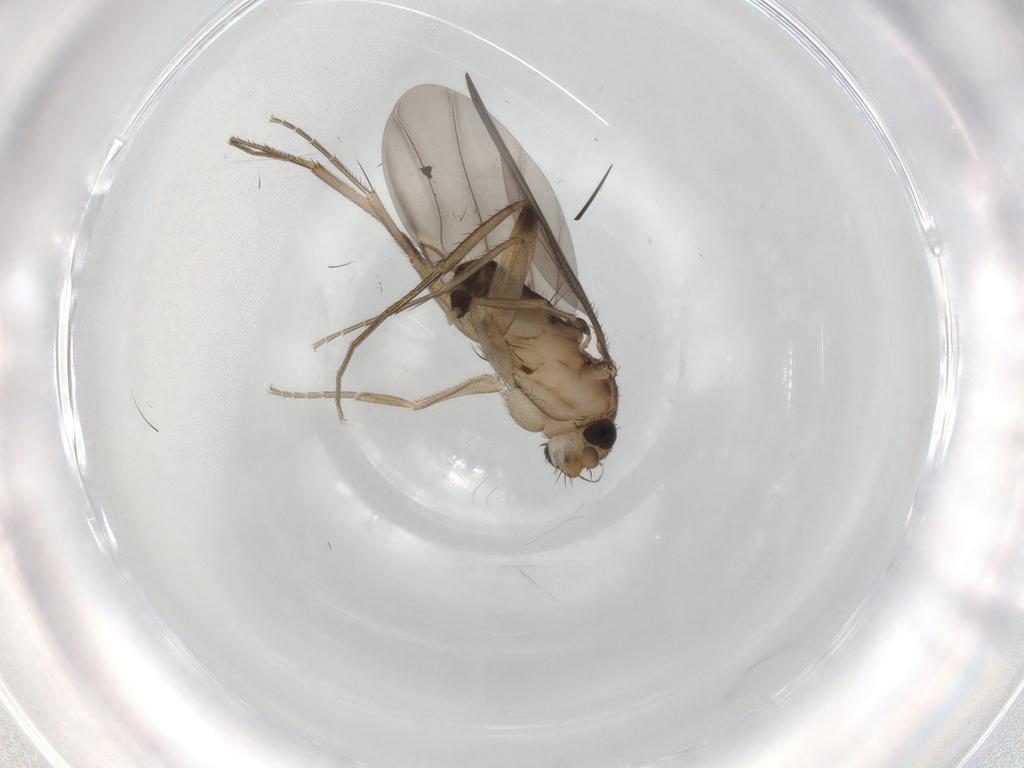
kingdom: Animalia
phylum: Arthropoda
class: Insecta
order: Diptera
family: Phoridae
